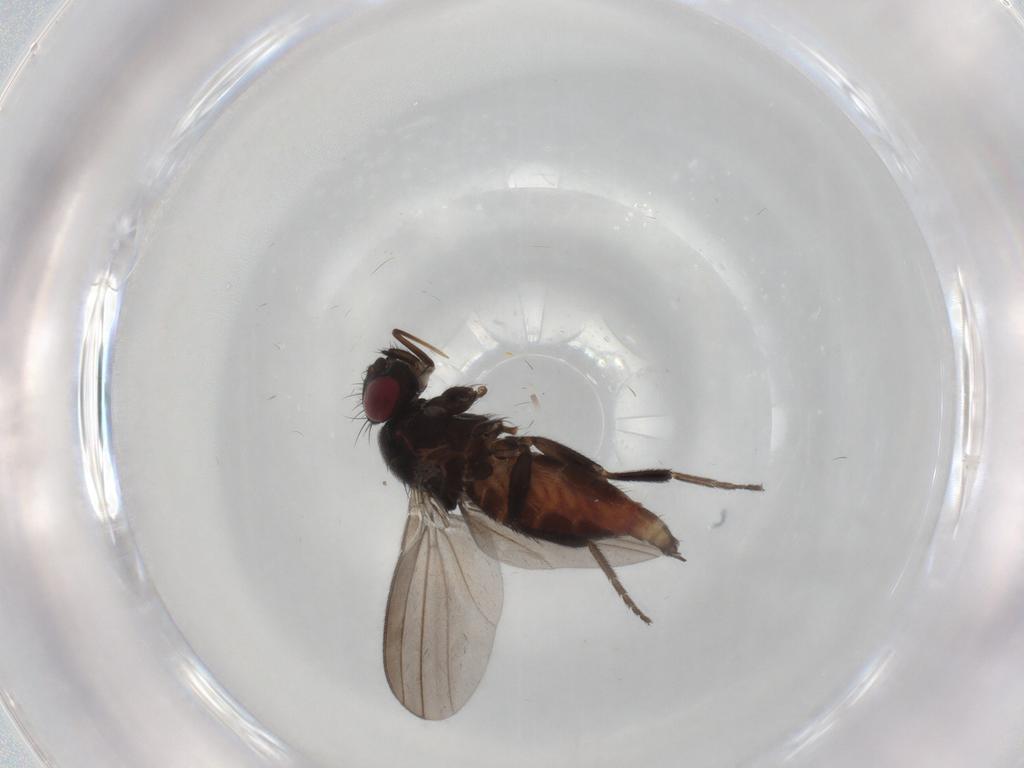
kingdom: Animalia
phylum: Arthropoda
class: Insecta
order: Diptera
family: Milichiidae
